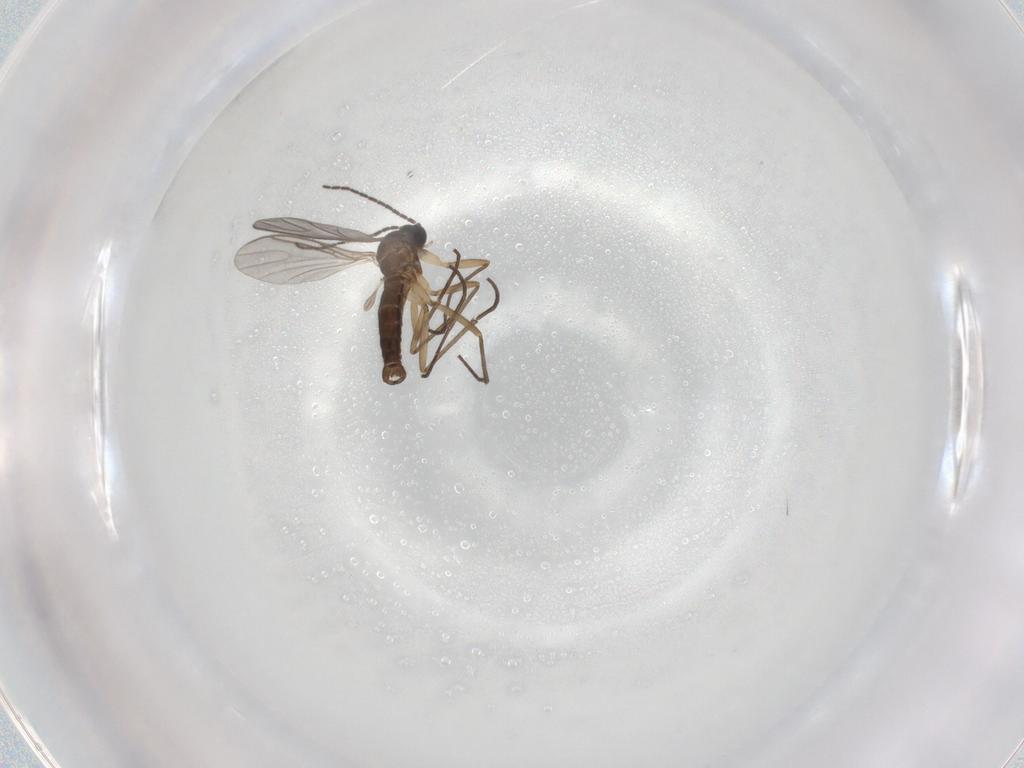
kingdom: Animalia
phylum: Arthropoda
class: Insecta
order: Diptera
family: Sciaridae
